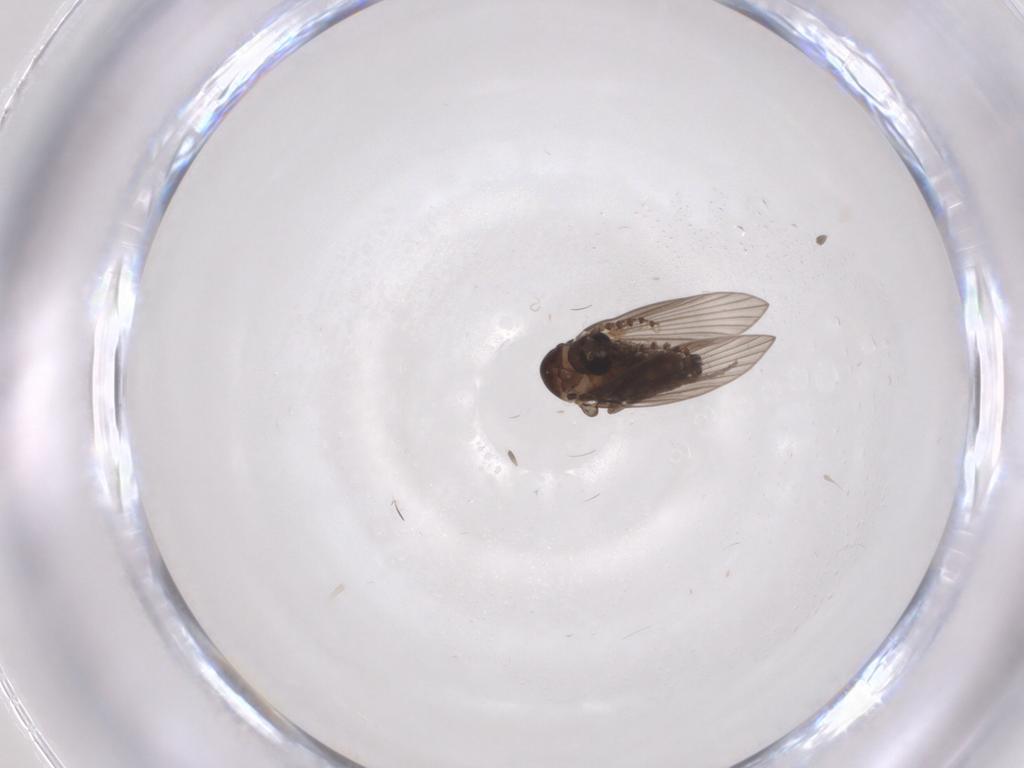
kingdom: Animalia
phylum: Arthropoda
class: Insecta
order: Diptera
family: Psychodidae
